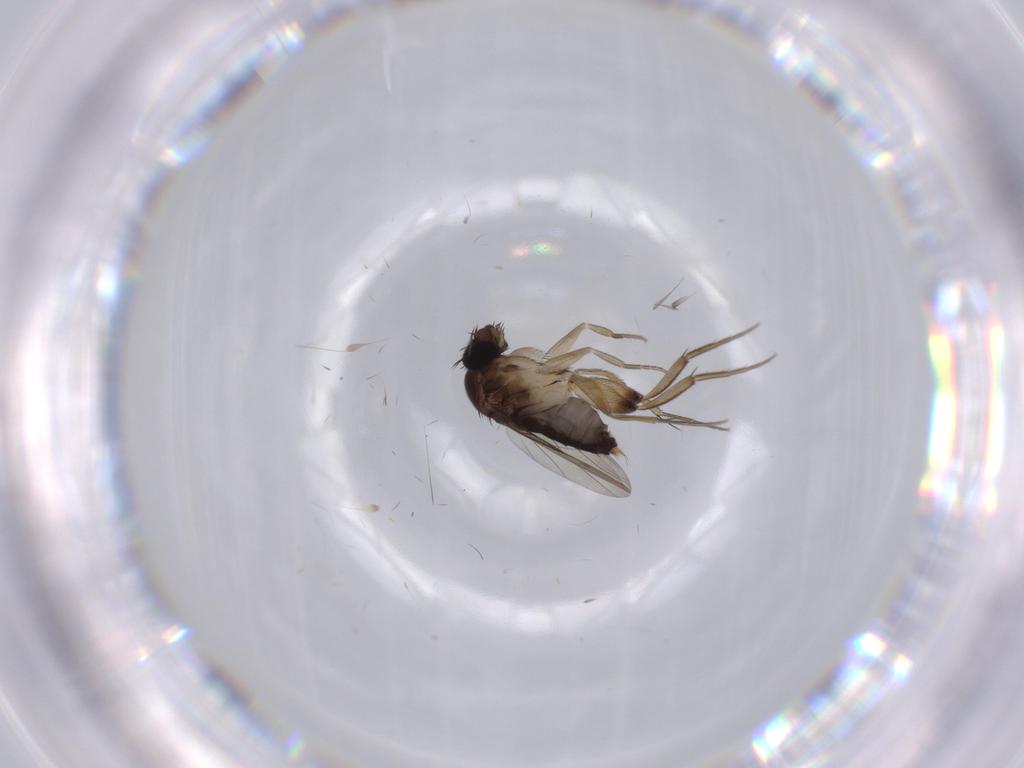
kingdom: Animalia
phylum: Arthropoda
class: Insecta
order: Diptera
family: Phoridae
